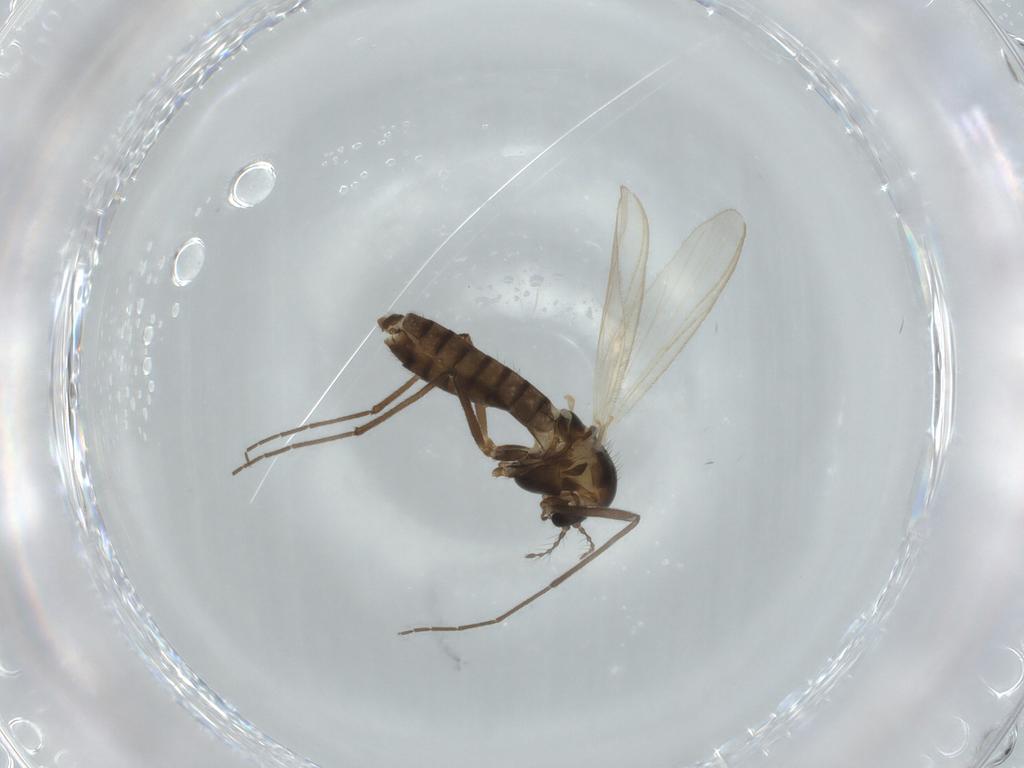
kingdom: Animalia
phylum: Arthropoda
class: Insecta
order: Diptera
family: Chironomidae
